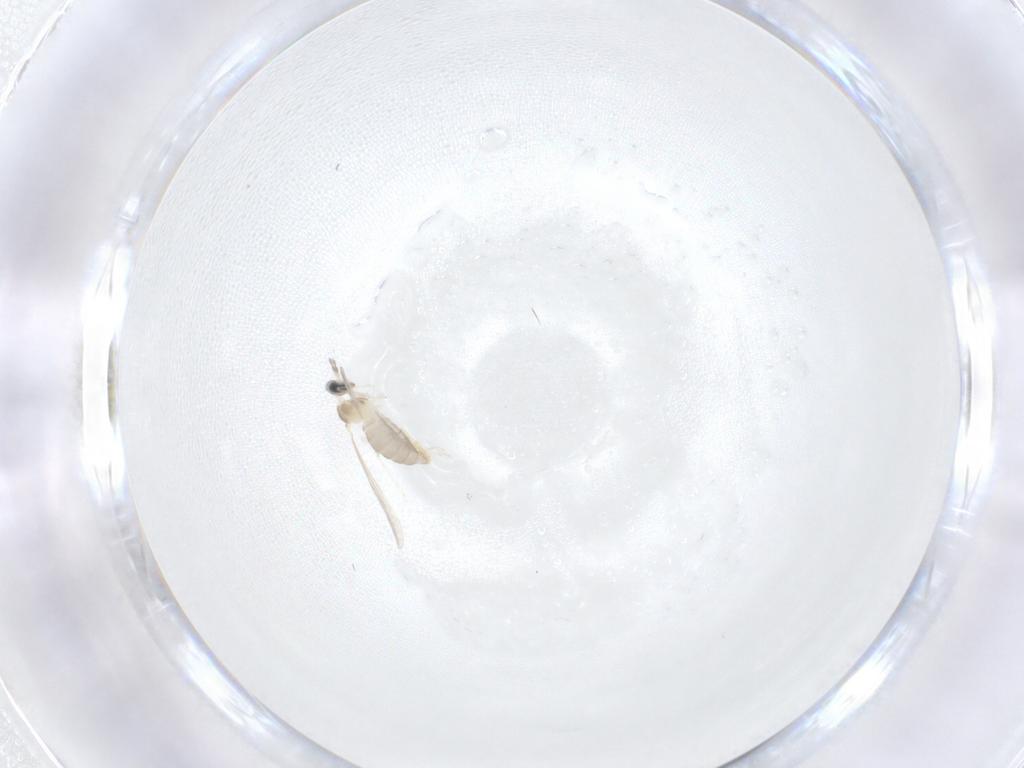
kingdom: Animalia
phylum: Arthropoda
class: Insecta
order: Diptera
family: Cecidomyiidae
